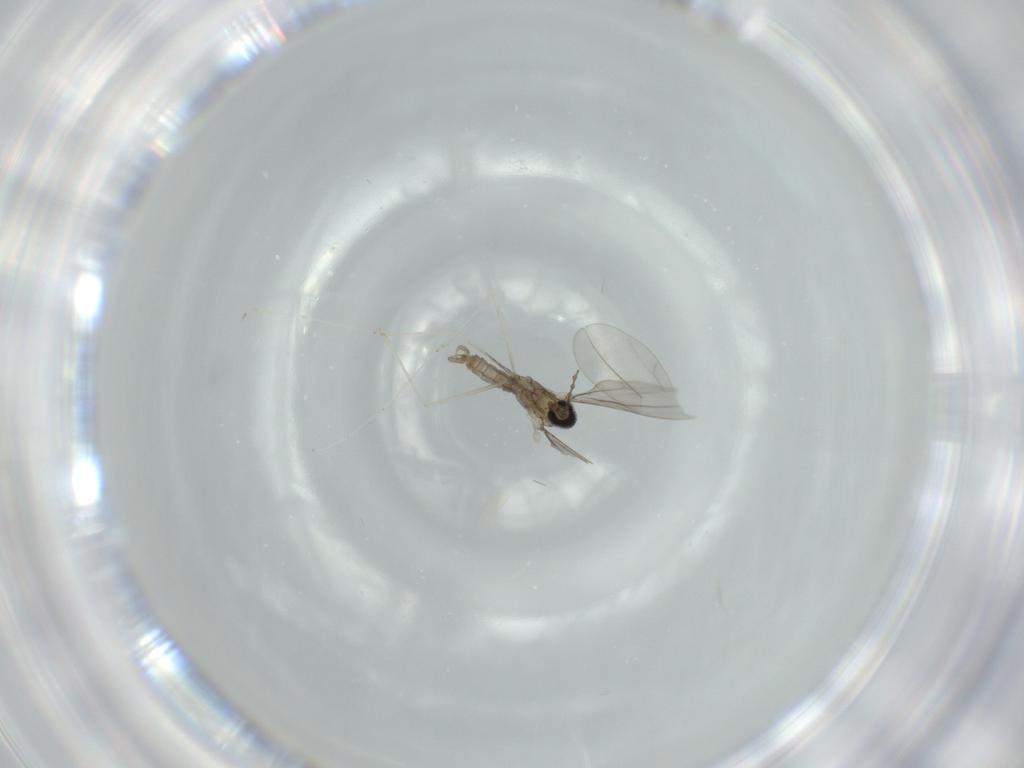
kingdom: Animalia
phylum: Arthropoda
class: Insecta
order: Diptera
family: Cecidomyiidae
